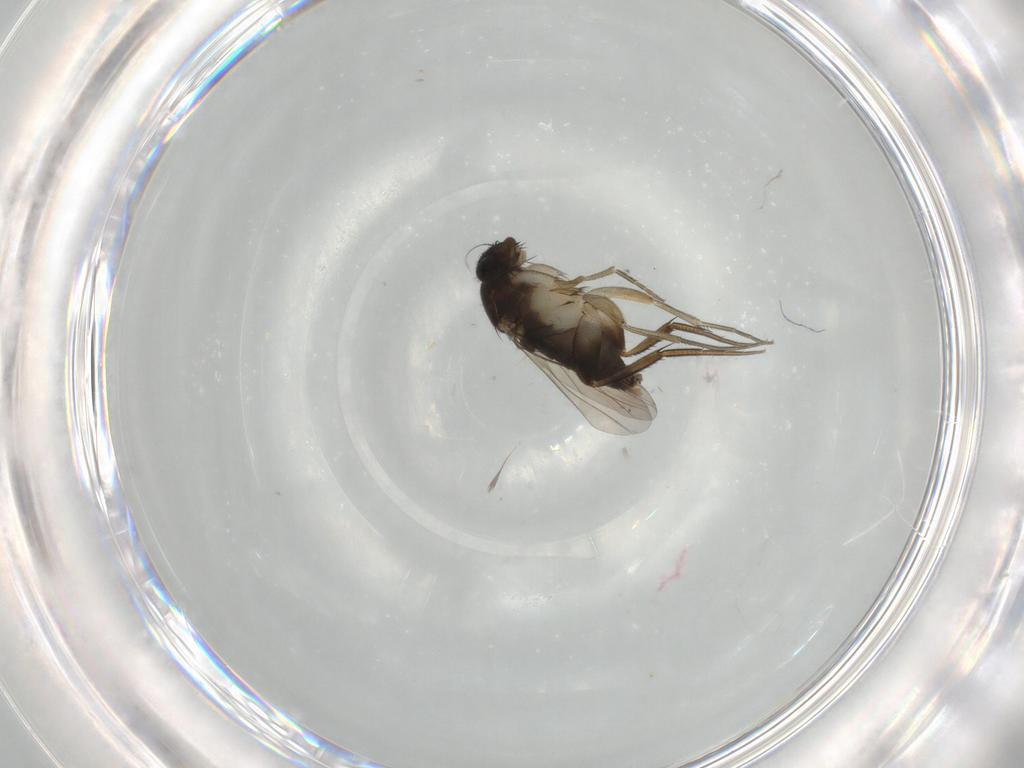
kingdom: Animalia
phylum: Arthropoda
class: Insecta
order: Diptera
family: Phoridae
